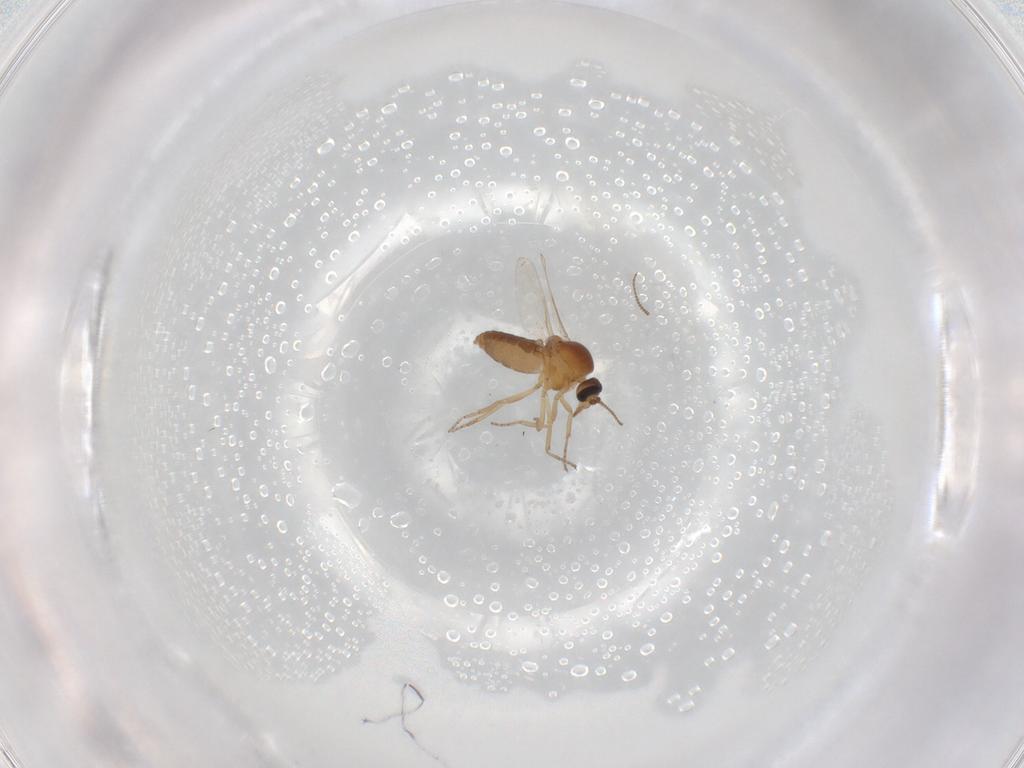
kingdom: Animalia
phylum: Arthropoda
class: Insecta
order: Diptera
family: Ceratopogonidae
